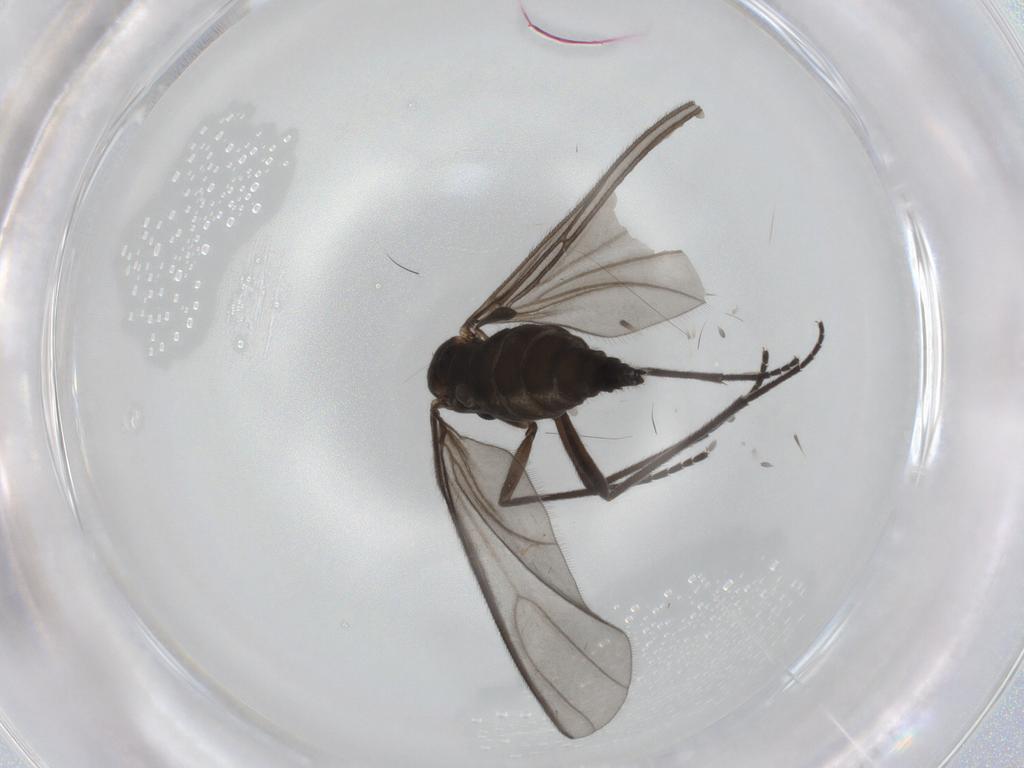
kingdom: Animalia
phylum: Arthropoda
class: Insecta
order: Diptera
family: Sciaridae
